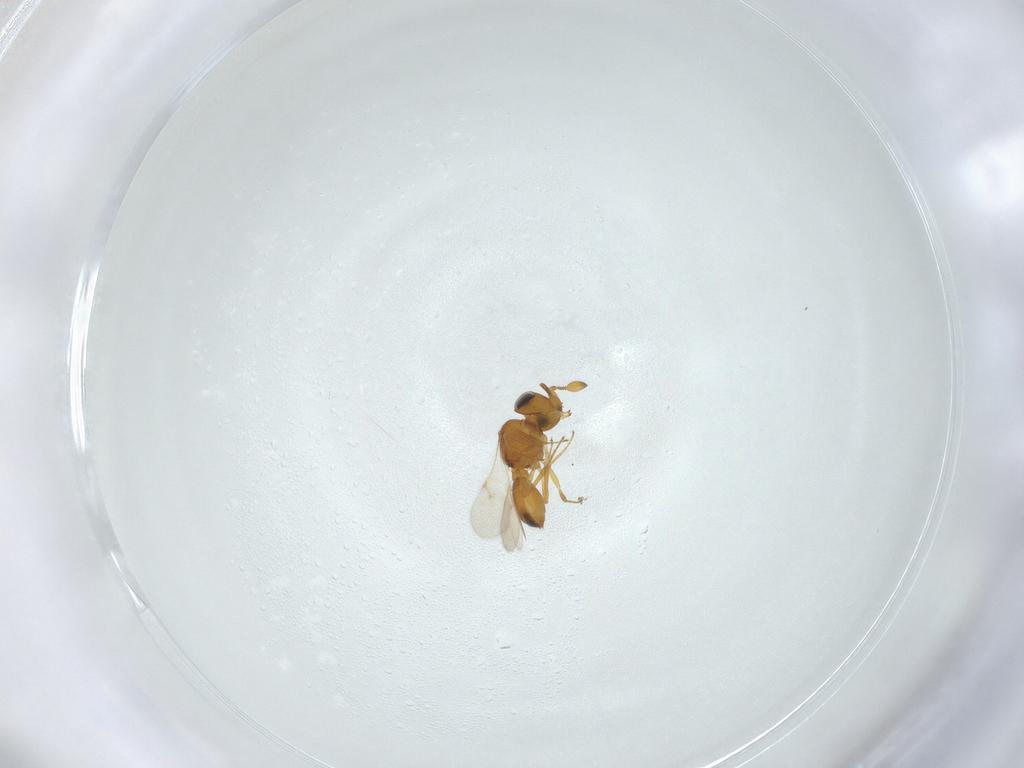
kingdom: Animalia
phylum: Arthropoda
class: Insecta
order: Hymenoptera
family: Scelionidae
